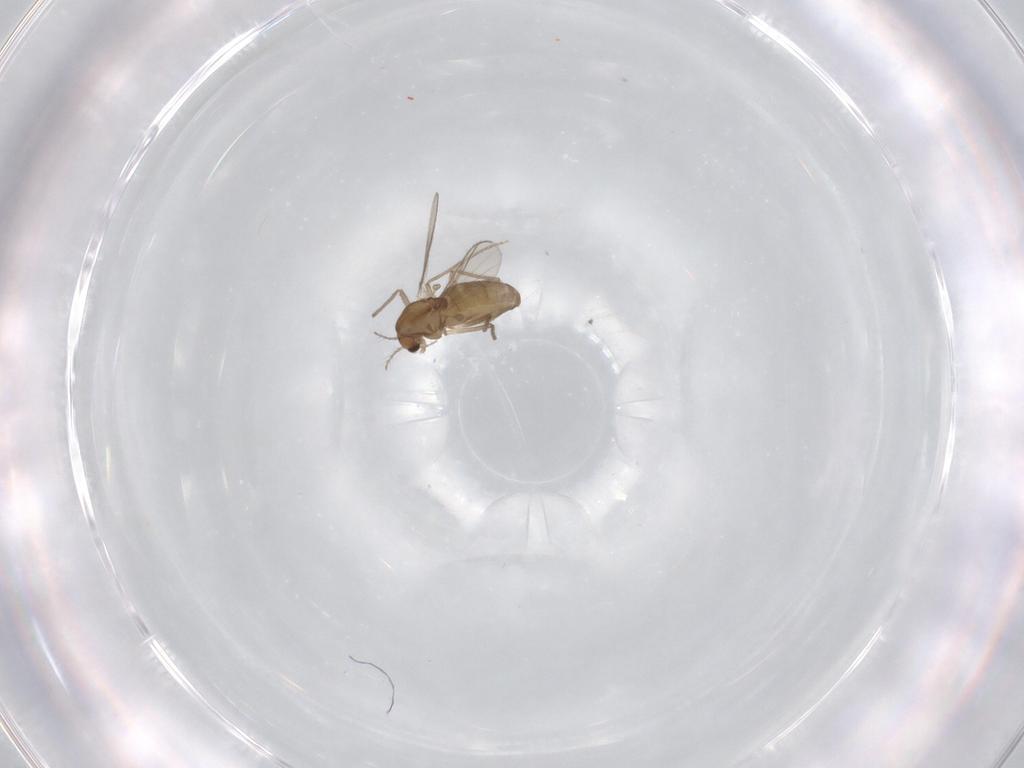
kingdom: Animalia
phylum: Arthropoda
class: Insecta
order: Diptera
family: Chironomidae
